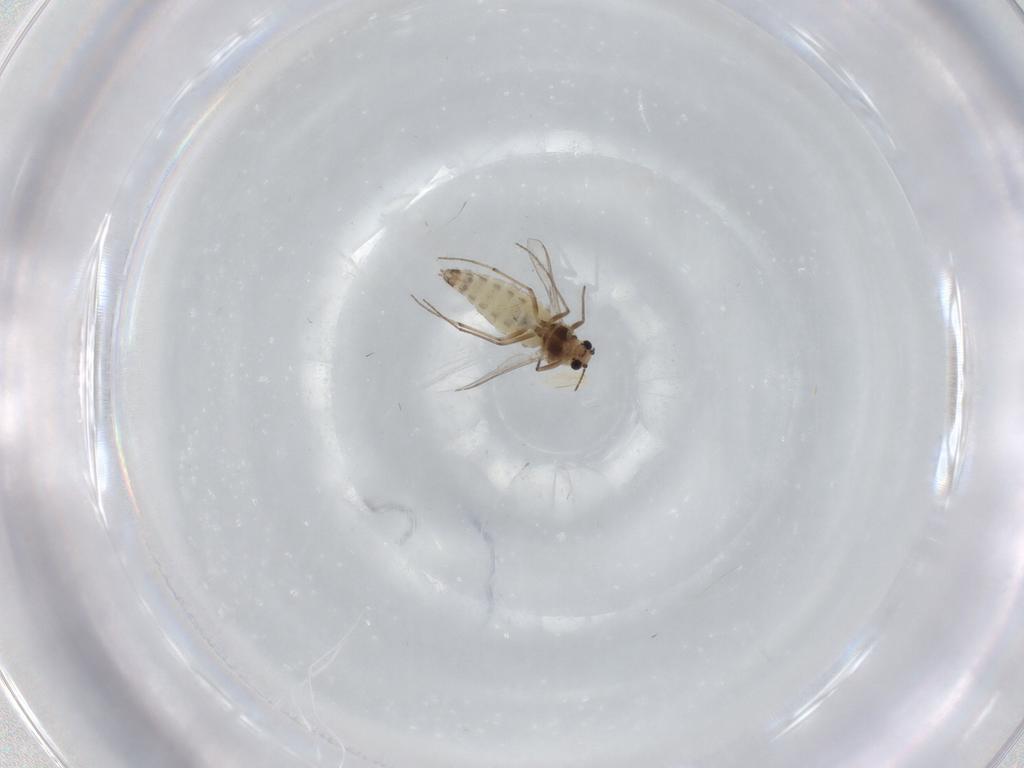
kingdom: Animalia
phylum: Arthropoda
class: Insecta
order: Diptera
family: Chironomidae
